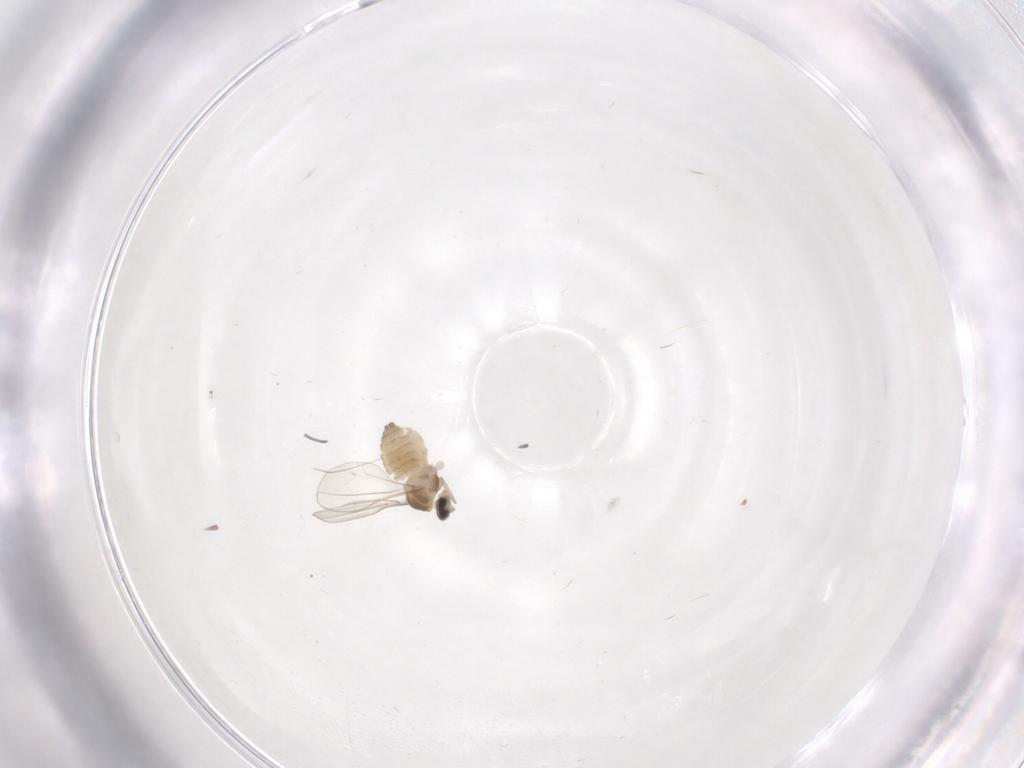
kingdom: Animalia
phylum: Arthropoda
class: Insecta
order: Diptera
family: Cecidomyiidae
